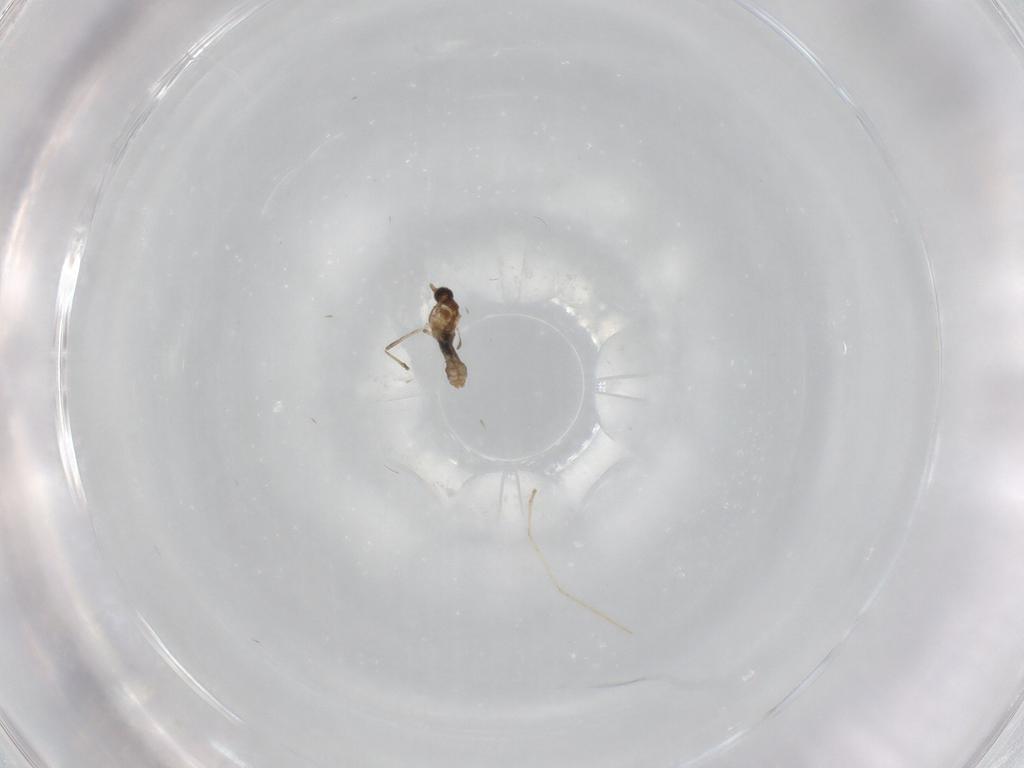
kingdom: Animalia
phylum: Arthropoda
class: Insecta
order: Diptera
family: Chironomidae
